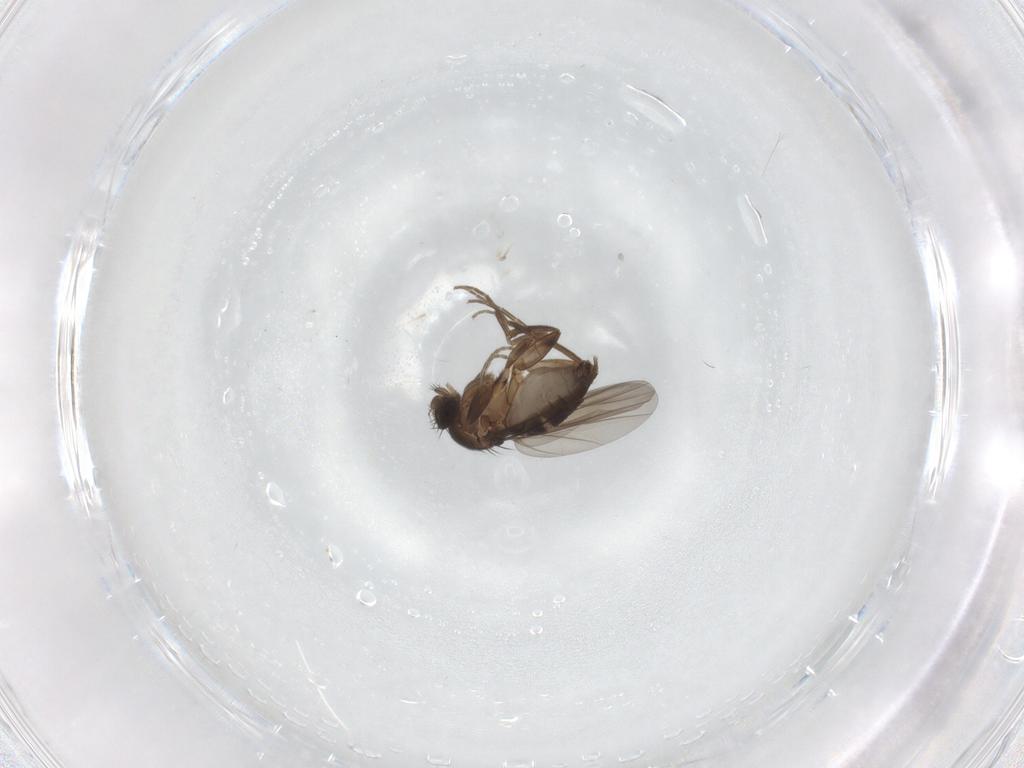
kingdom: Animalia
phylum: Arthropoda
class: Insecta
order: Diptera
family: Phoridae
